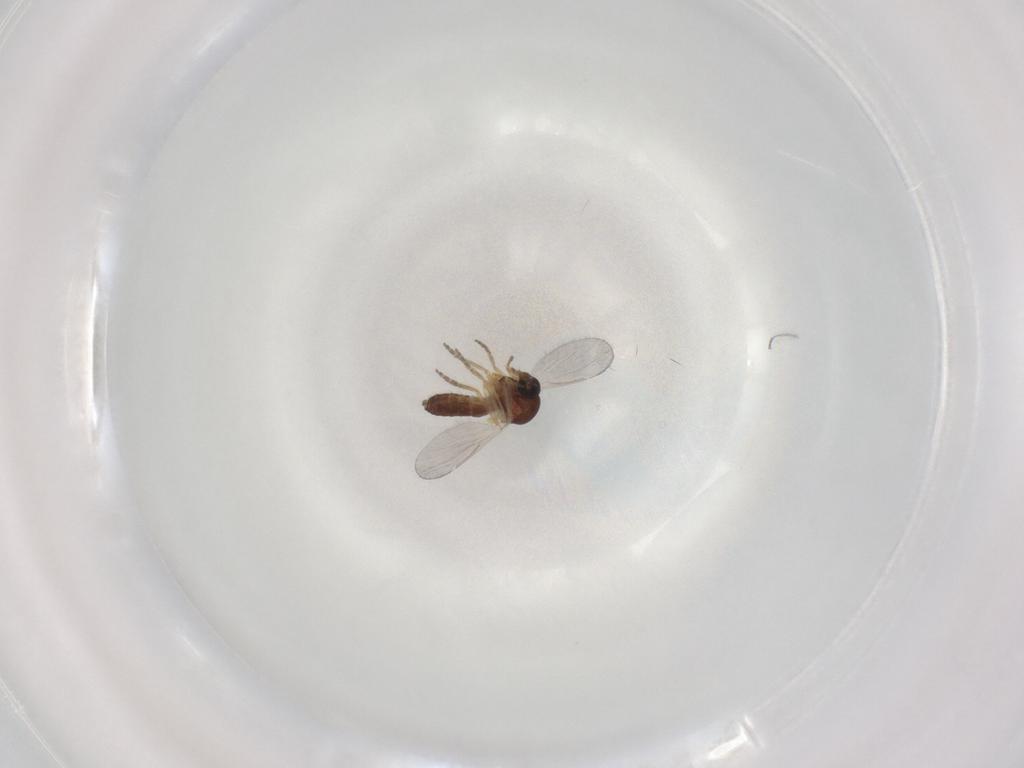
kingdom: Animalia
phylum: Arthropoda
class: Insecta
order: Diptera
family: Ceratopogonidae
